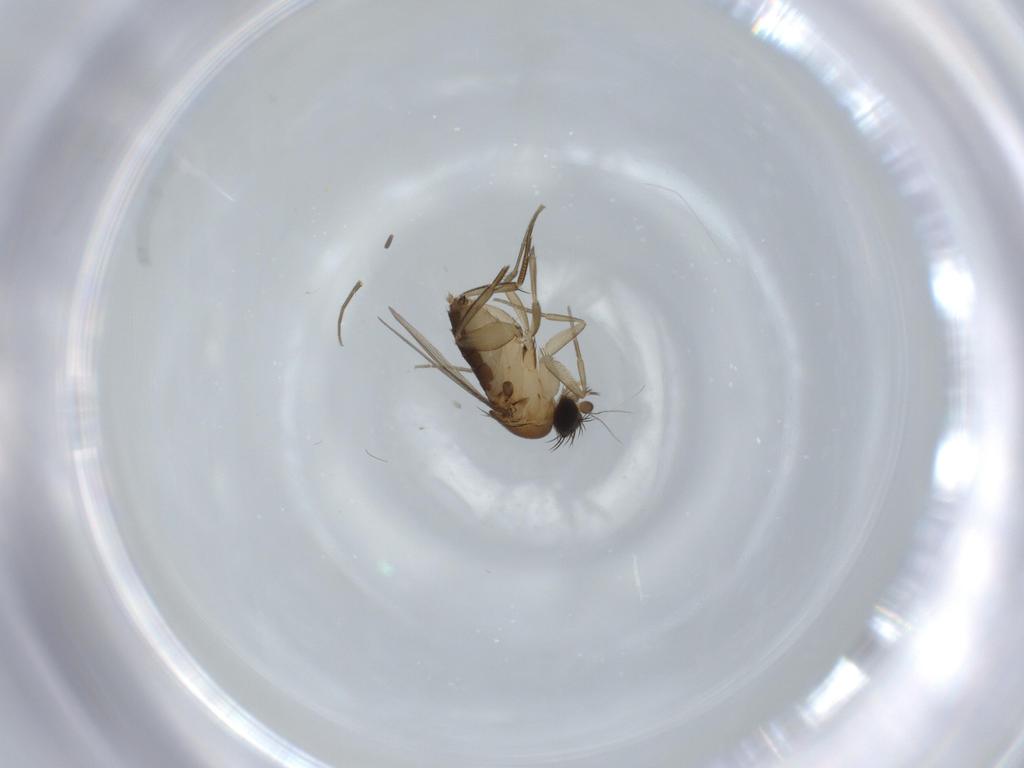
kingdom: Animalia
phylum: Arthropoda
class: Insecta
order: Diptera
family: Phoridae
